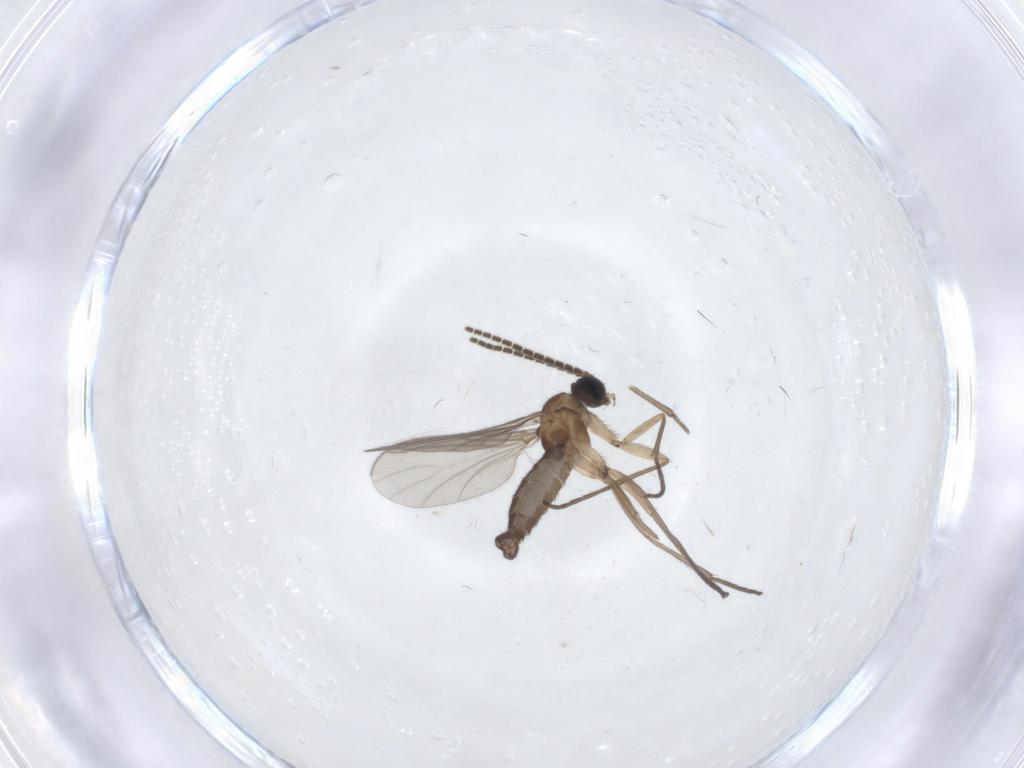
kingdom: Animalia
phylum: Arthropoda
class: Insecta
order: Diptera
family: Sciaridae
